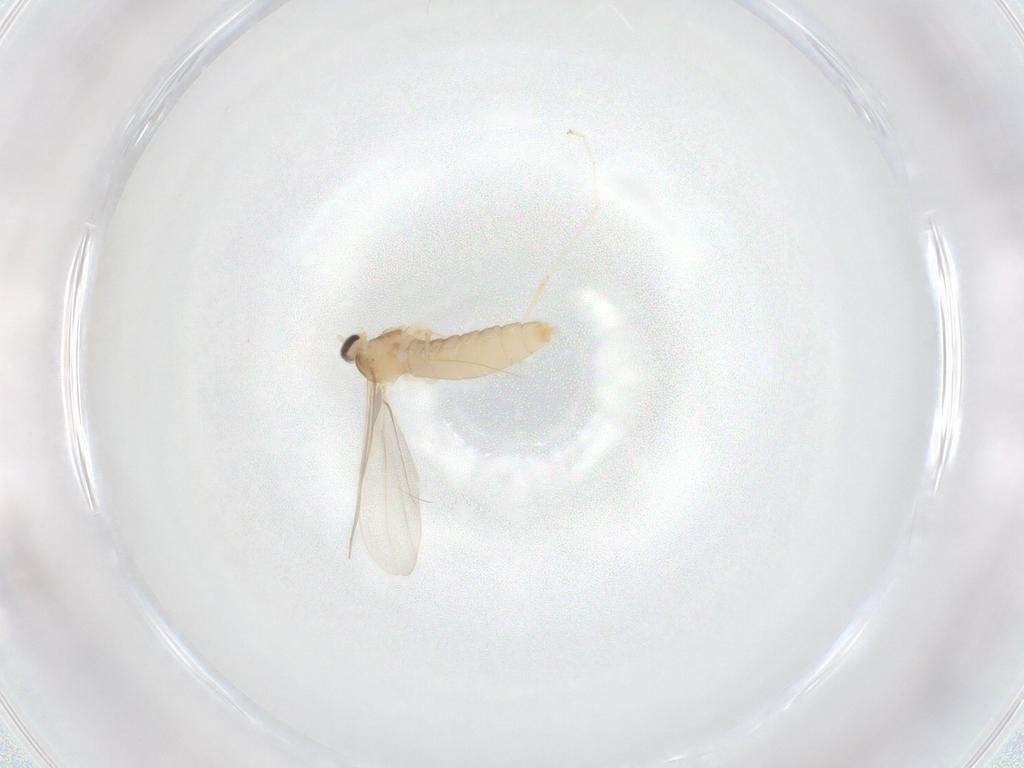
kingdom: Animalia
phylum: Arthropoda
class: Insecta
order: Diptera
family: Cecidomyiidae
